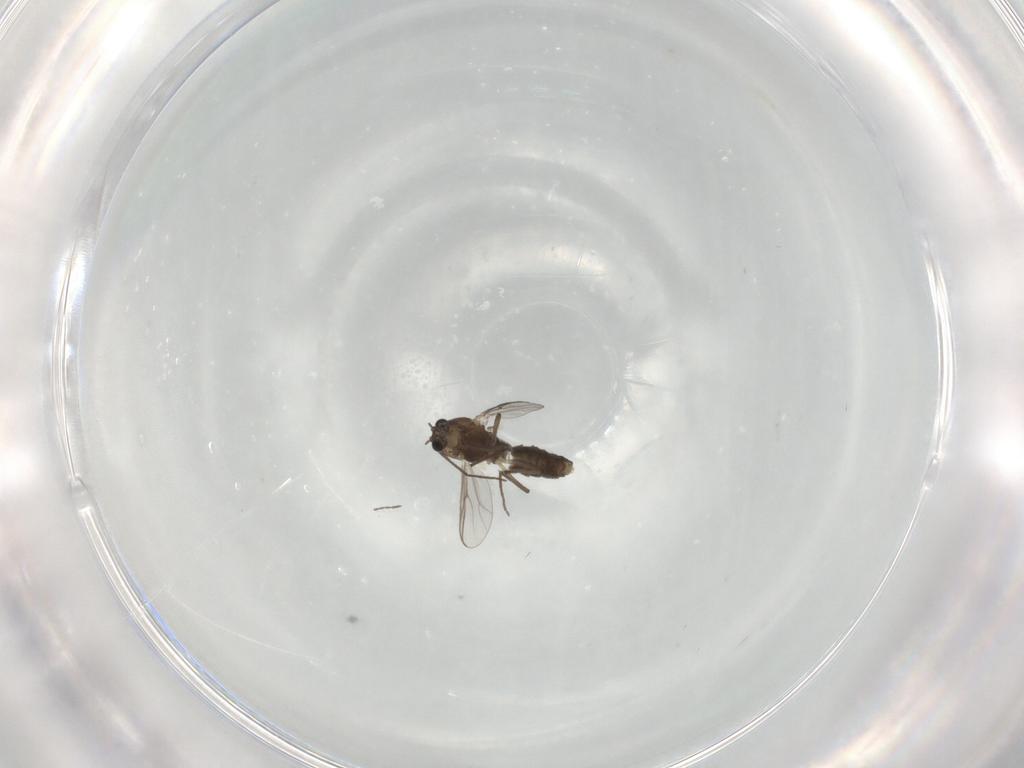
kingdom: Animalia
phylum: Arthropoda
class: Insecta
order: Diptera
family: Chironomidae
